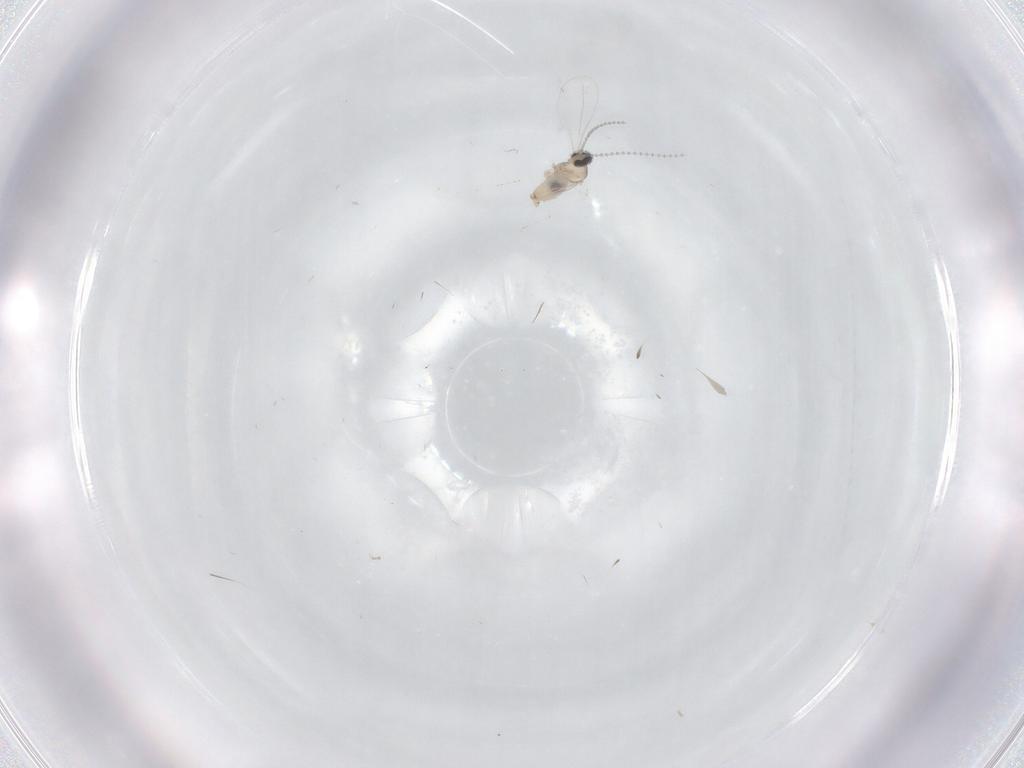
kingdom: Animalia
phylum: Arthropoda
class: Insecta
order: Diptera
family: Cecidomyiidae
